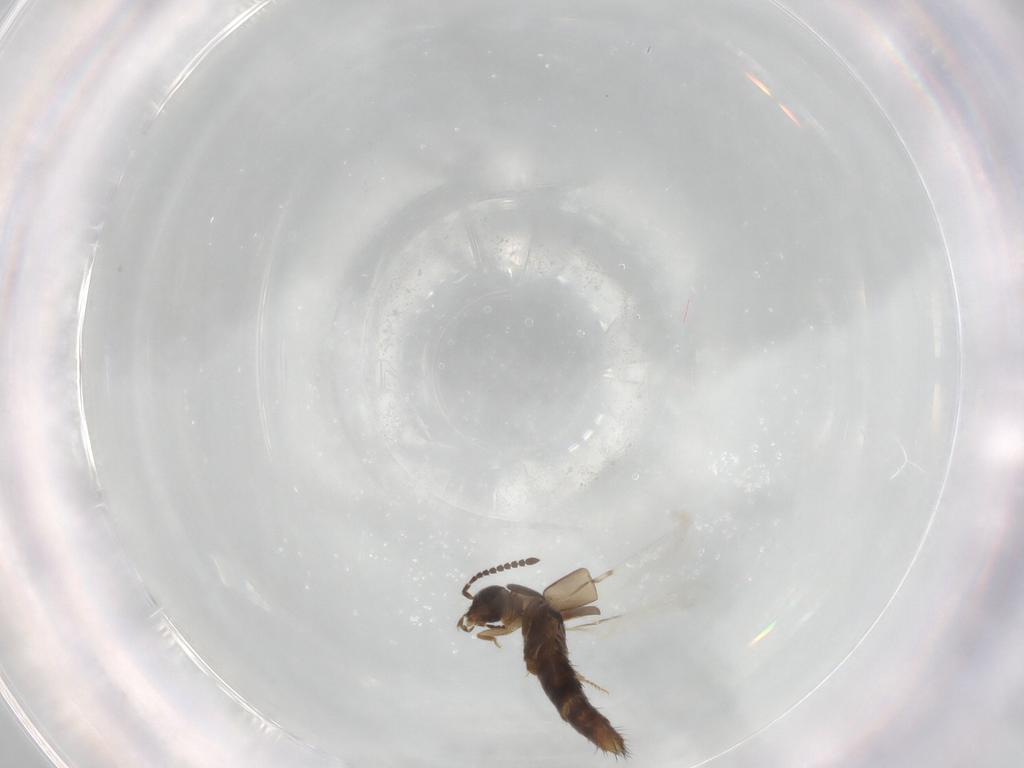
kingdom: Animalia
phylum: Arthropoda
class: Insecta
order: Coleoptera
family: Staphylinidae
